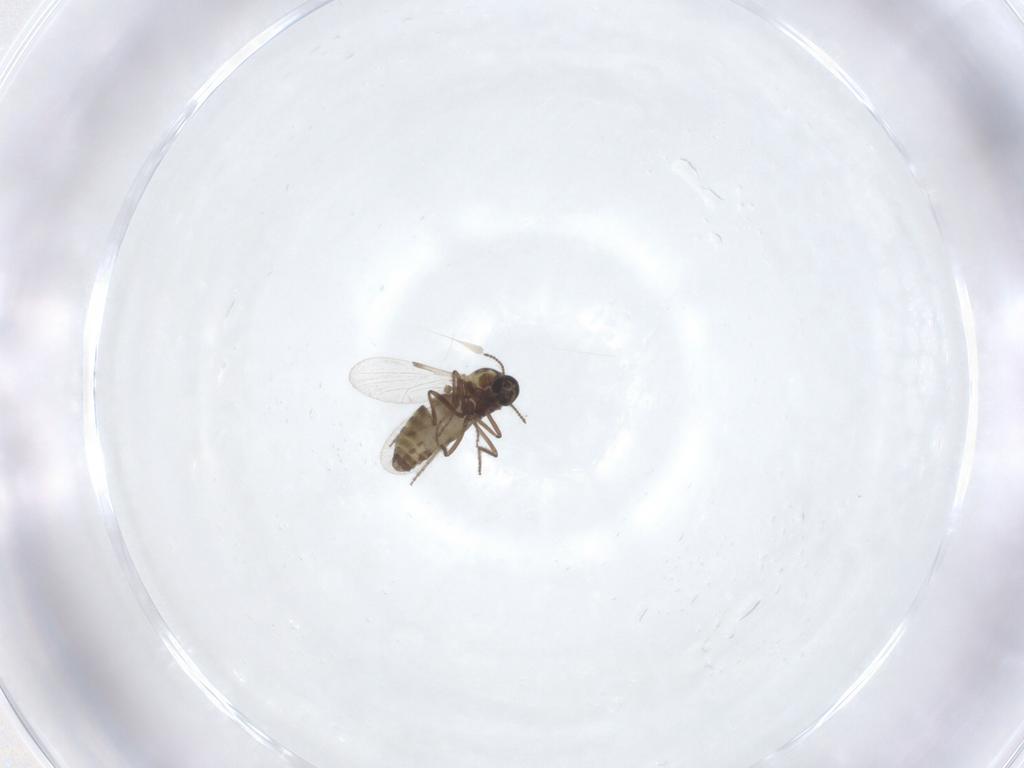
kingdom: Animalia
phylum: Arthropoda
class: Insecta
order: Diptera
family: Ceratopogonidae
